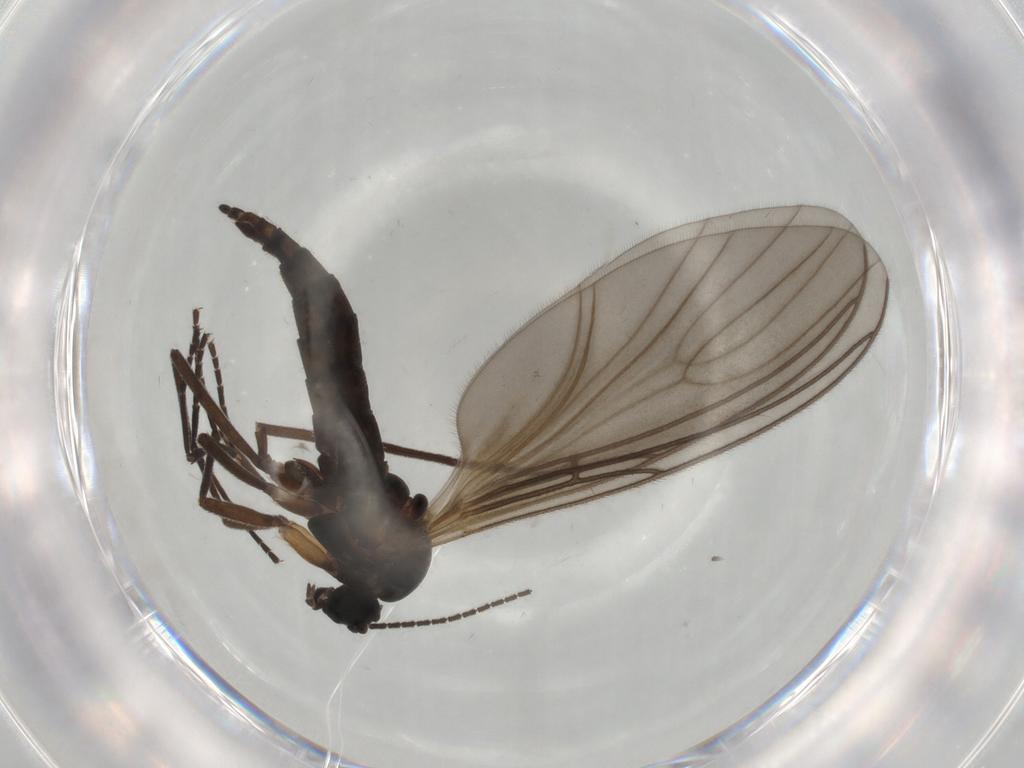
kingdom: Animalia
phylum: Arthropoda
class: Insecta
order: Diptera
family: Sciaridae
